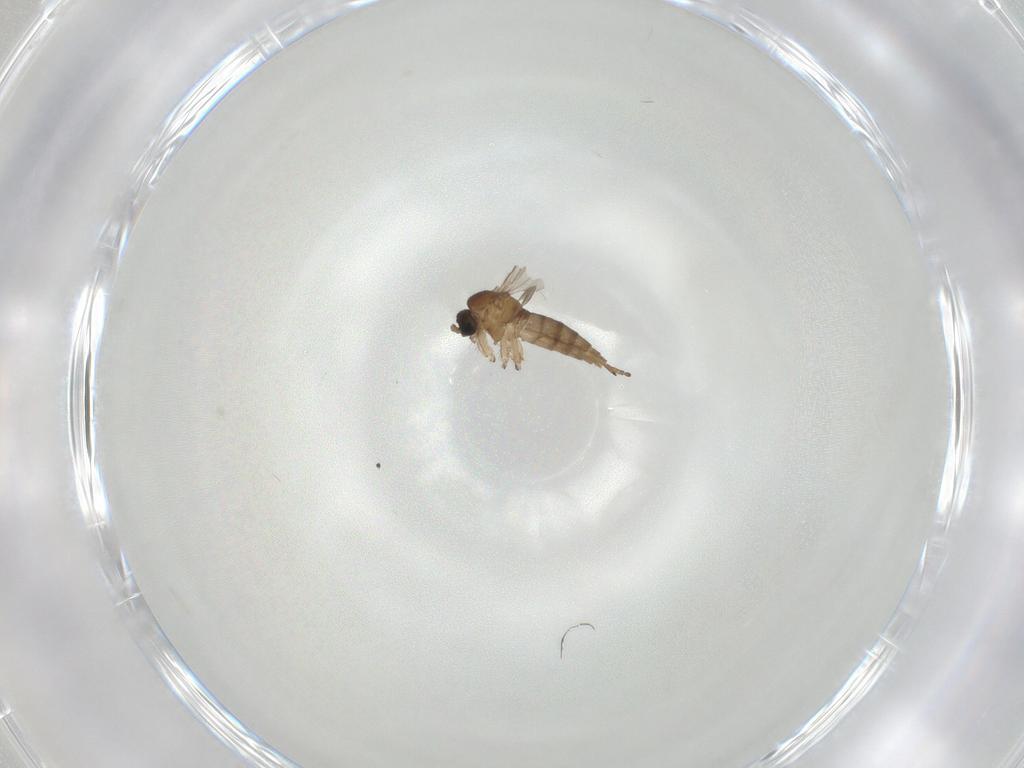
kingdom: Animalia
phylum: Arthropoda
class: Insecta
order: Diptera
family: Sciaridae
